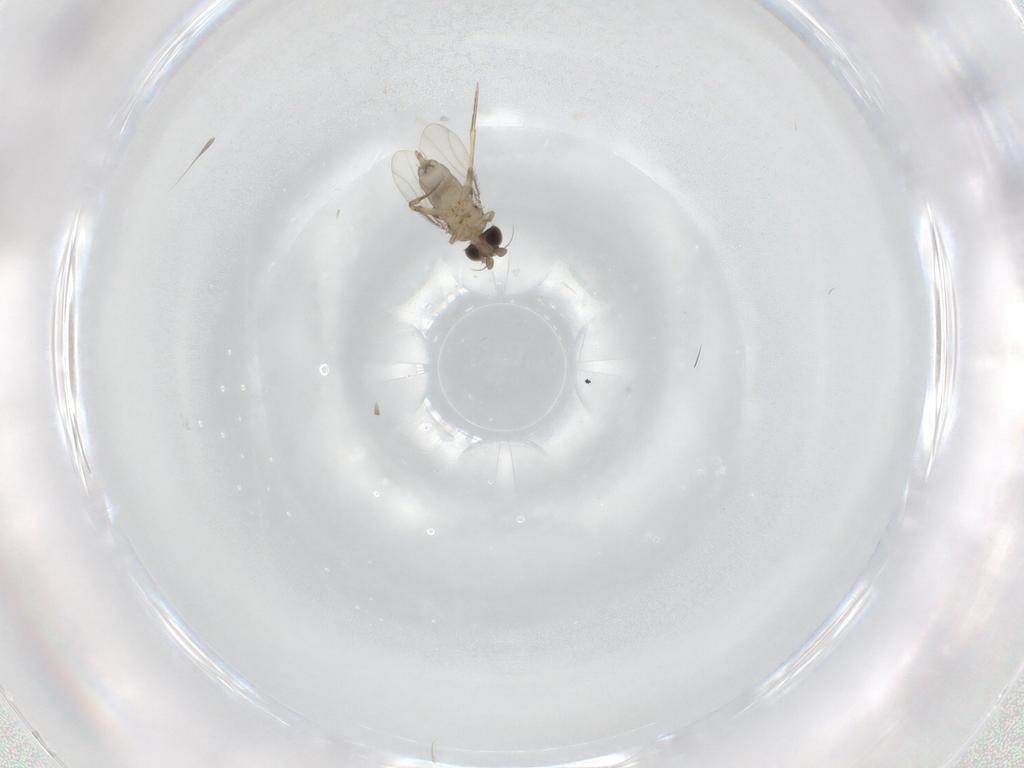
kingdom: Animalia
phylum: Arthropoda
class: Insecta
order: Diptera
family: Phoridae
